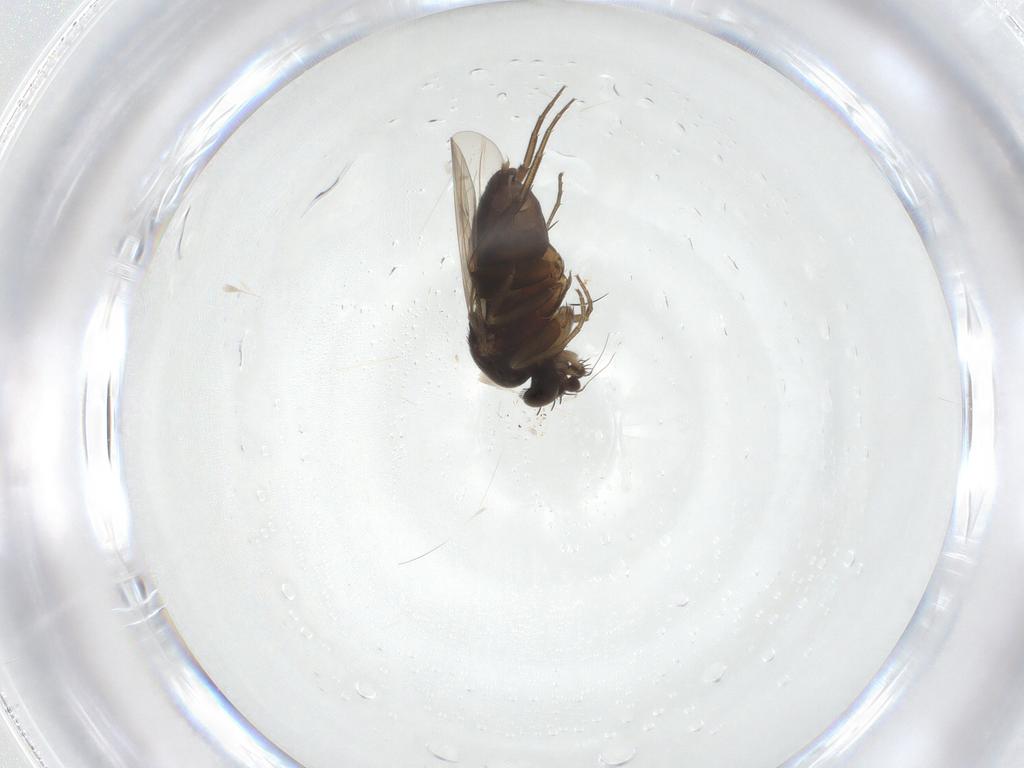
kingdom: Animalia
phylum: Arthropoda
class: Insecta
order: Diptera
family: Phoridae
